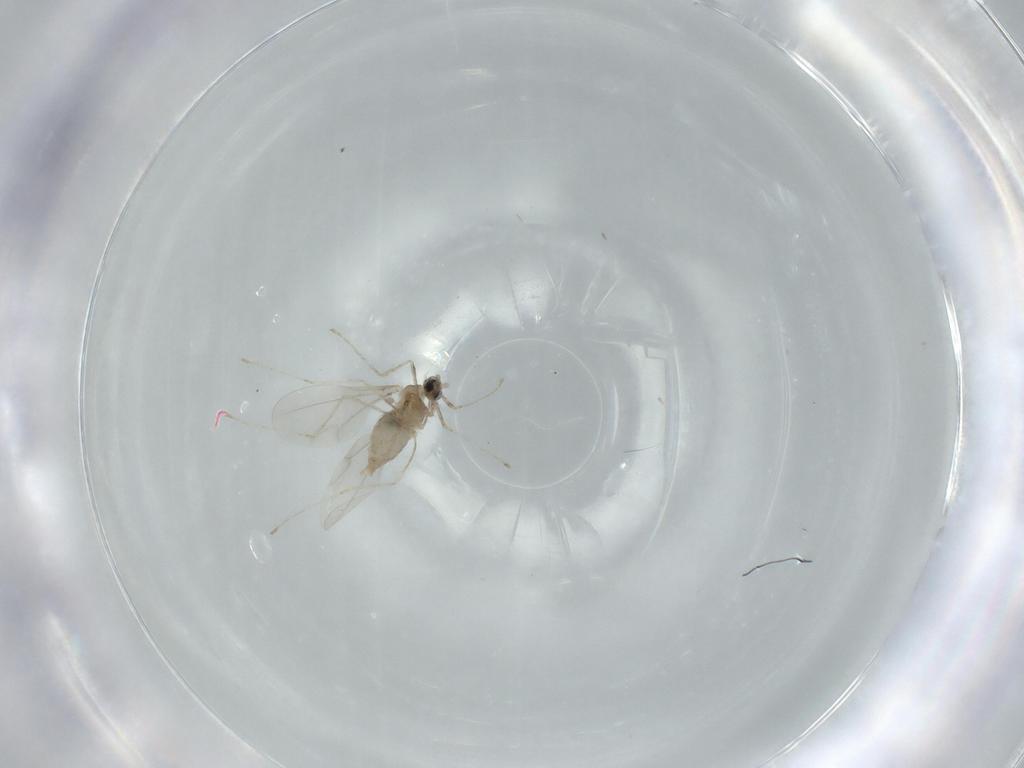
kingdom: Animalia
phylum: Arthropoda
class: Insecta
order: Diptera
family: Cecidomyiidae
